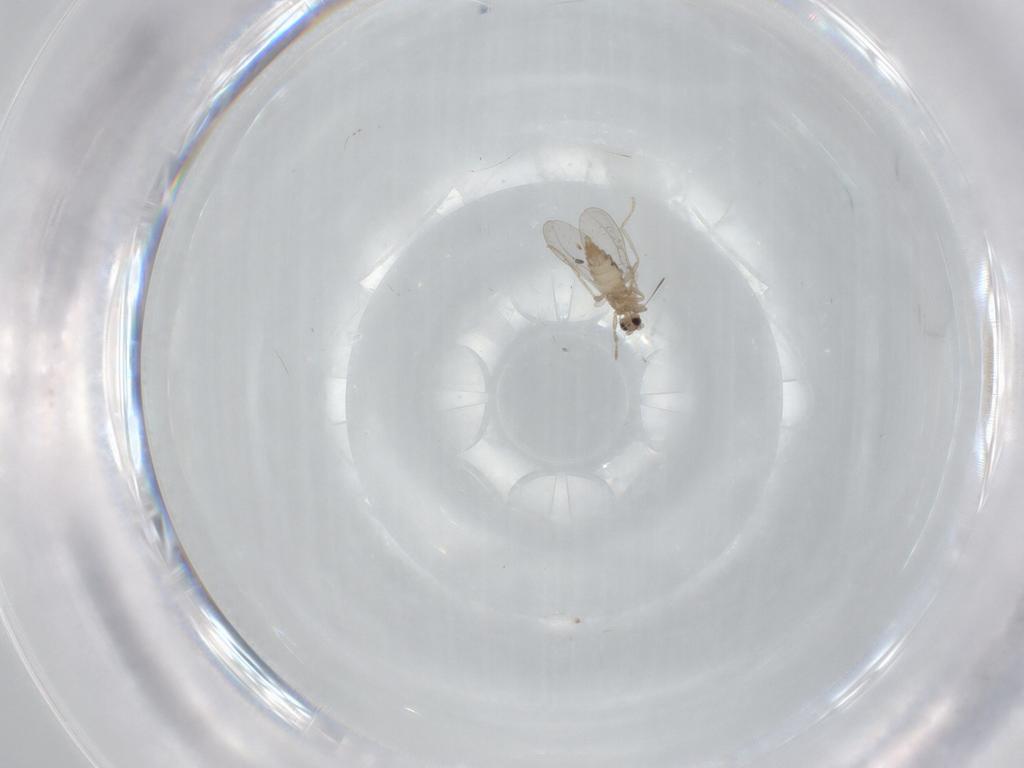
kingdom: Animalia
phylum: Arthropoda
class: Insecta
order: Diptera
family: Cecidomyiidae
